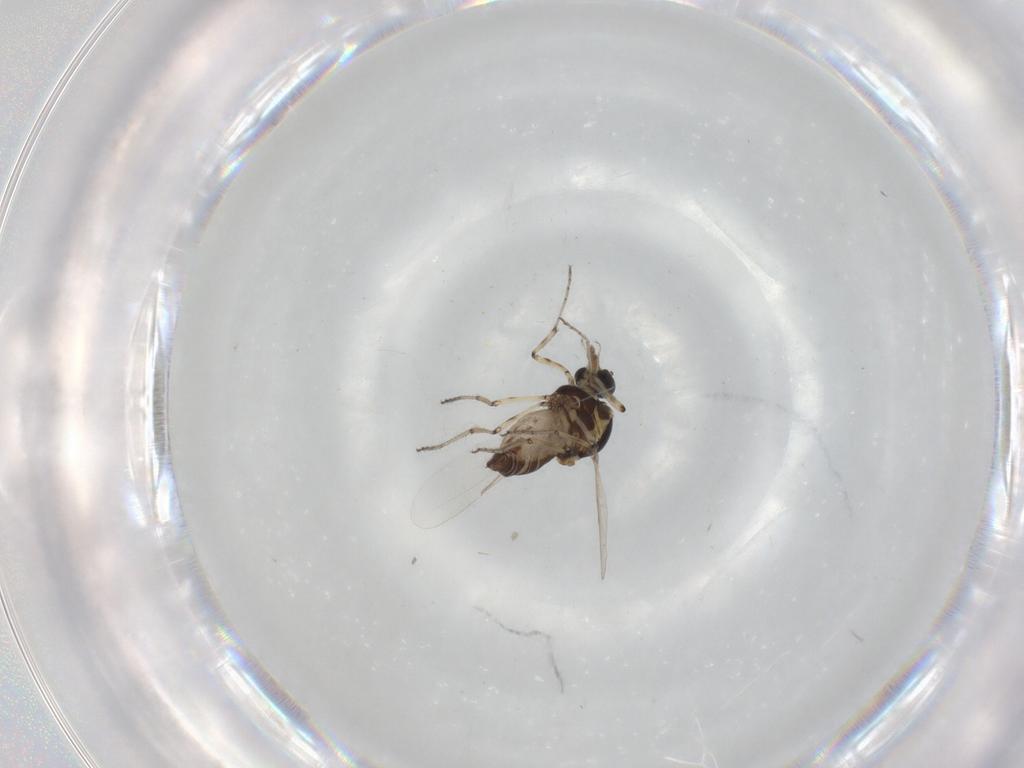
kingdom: Animalia
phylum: Arthropoda
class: Insecta
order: Diptera
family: Ceratopogonidae
